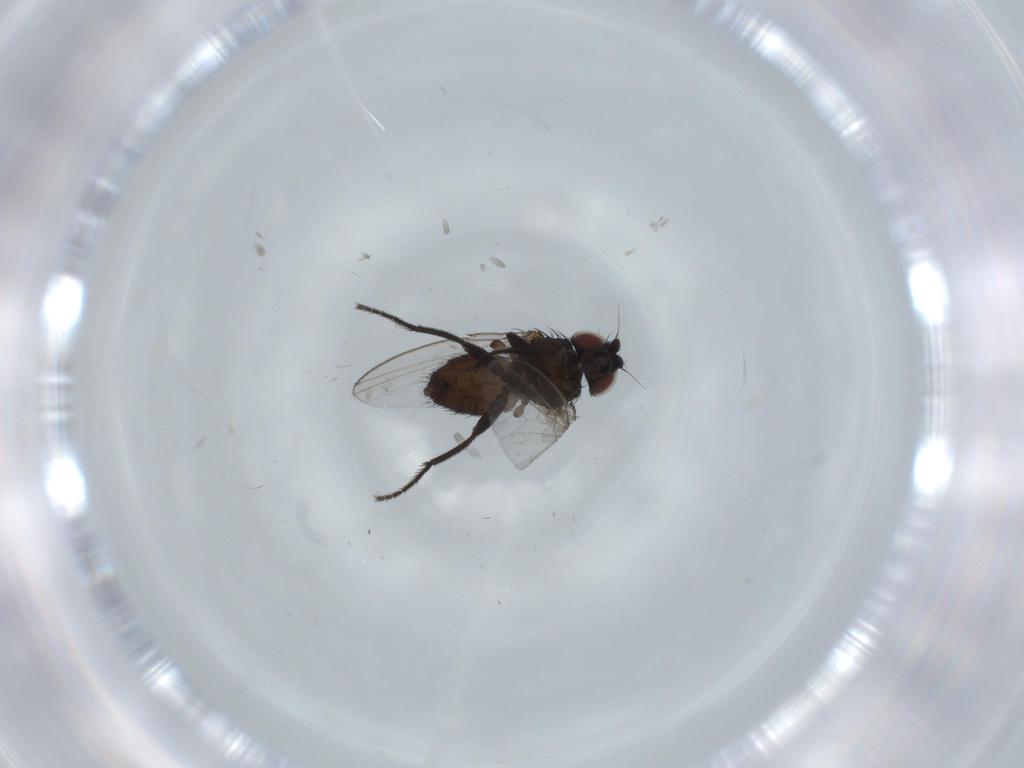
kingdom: Animalia
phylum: Arthropoda
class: Insecta
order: Diptera
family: Milichiidae
